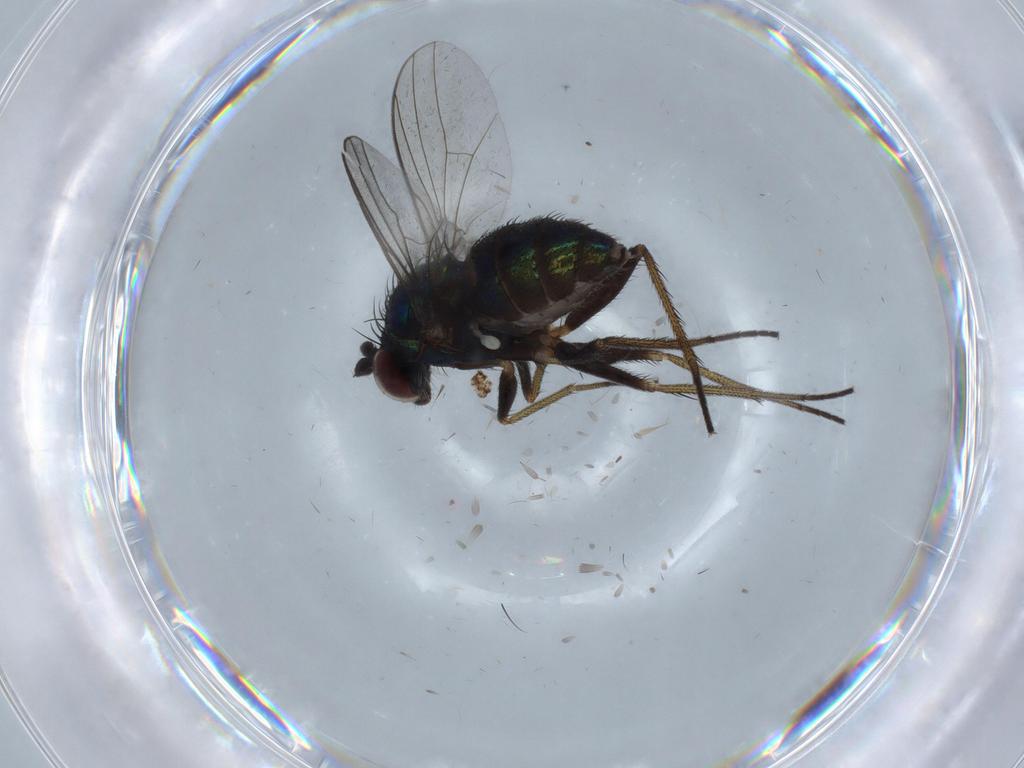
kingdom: Animalia
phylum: Arthropoda
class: Insecta
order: Diptera
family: Dolichopodidae
